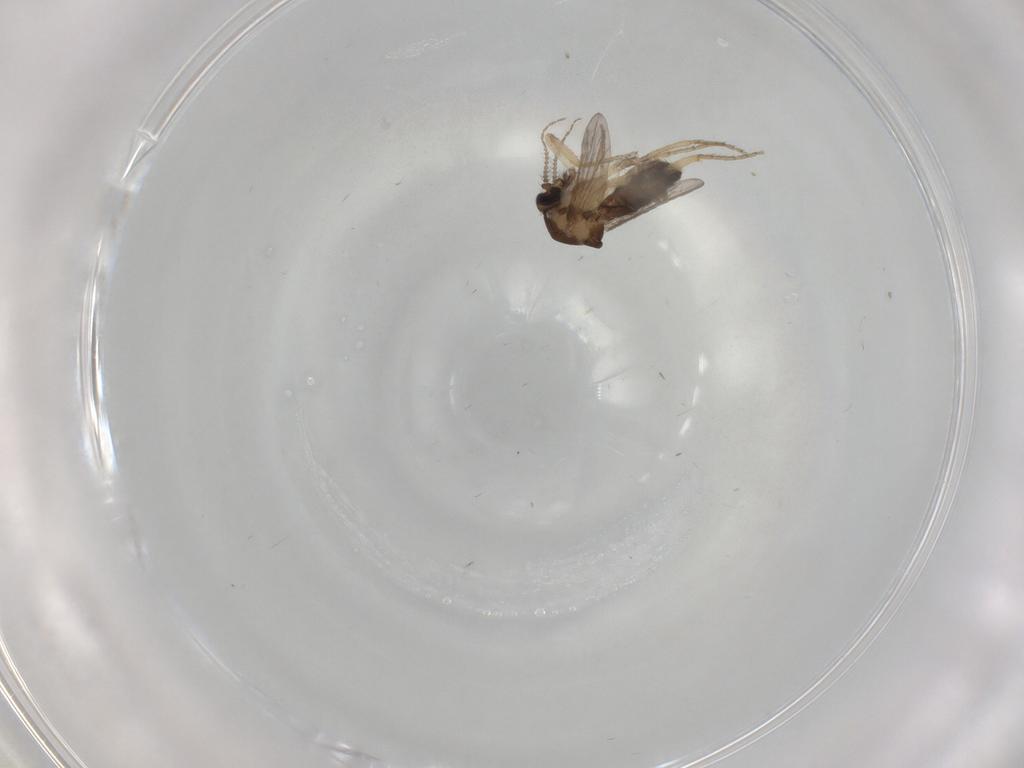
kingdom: Animalia
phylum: Arthropoda
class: Insecta
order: Diptera
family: Ceratopogonidae
